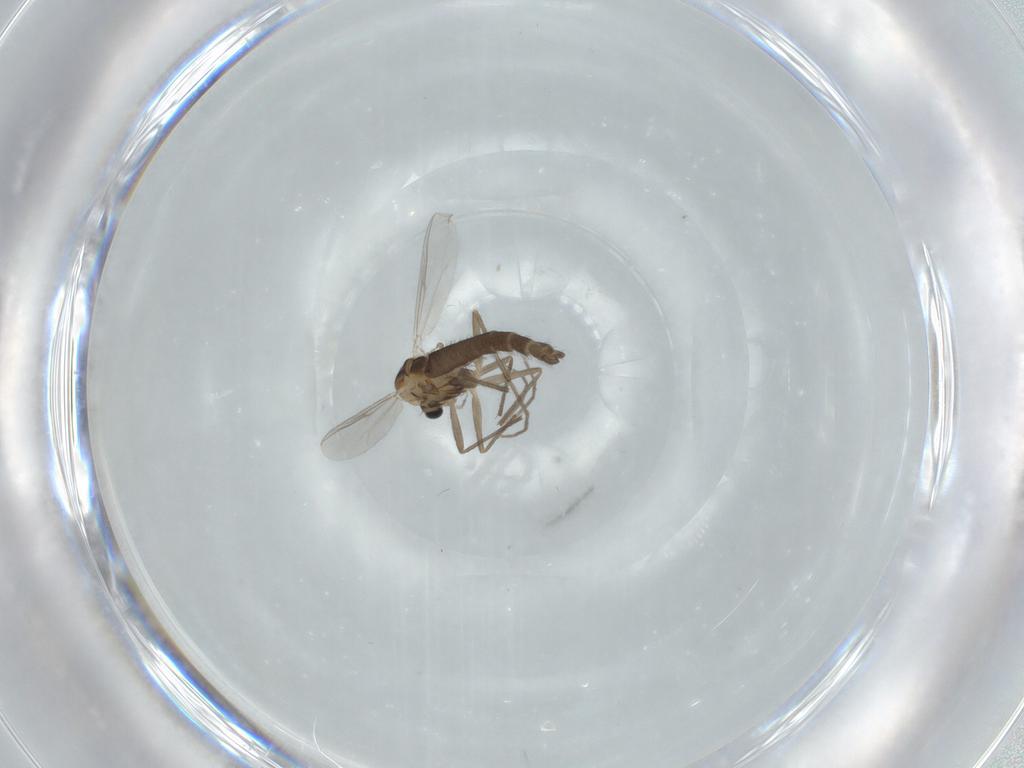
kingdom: Animalia
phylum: Arthropoda
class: Insecta
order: Diptera
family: Chironomidae
